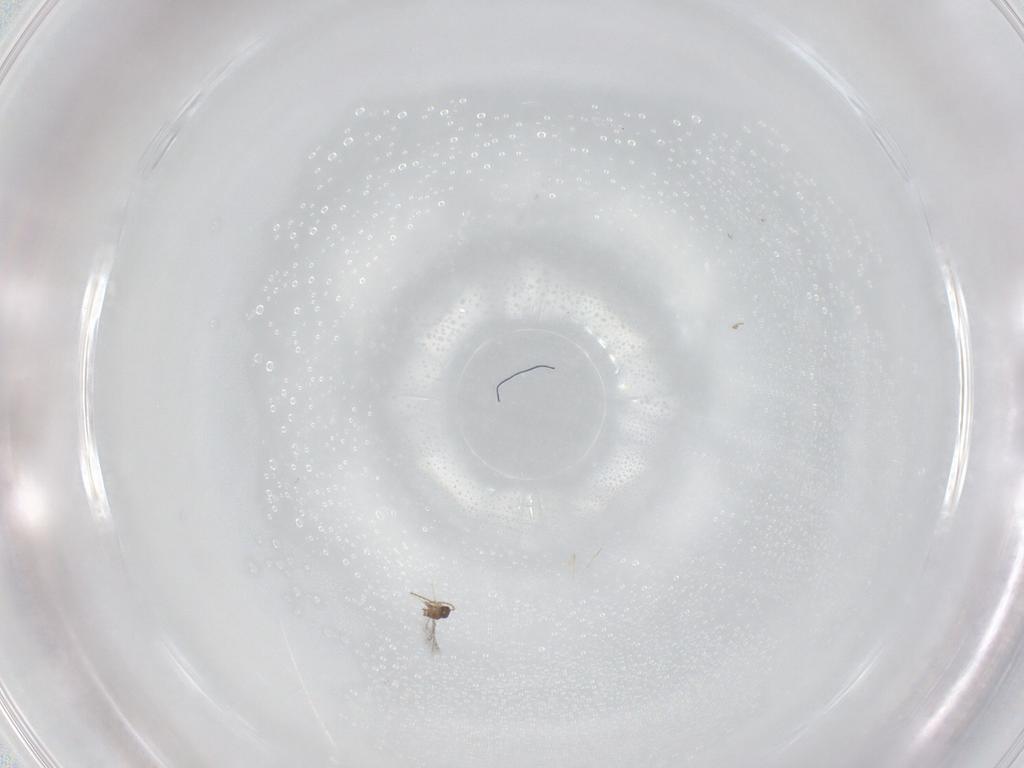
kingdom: Animalia
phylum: Arthropoda
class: Insecta
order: Hymenoptera
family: Mymaridae
